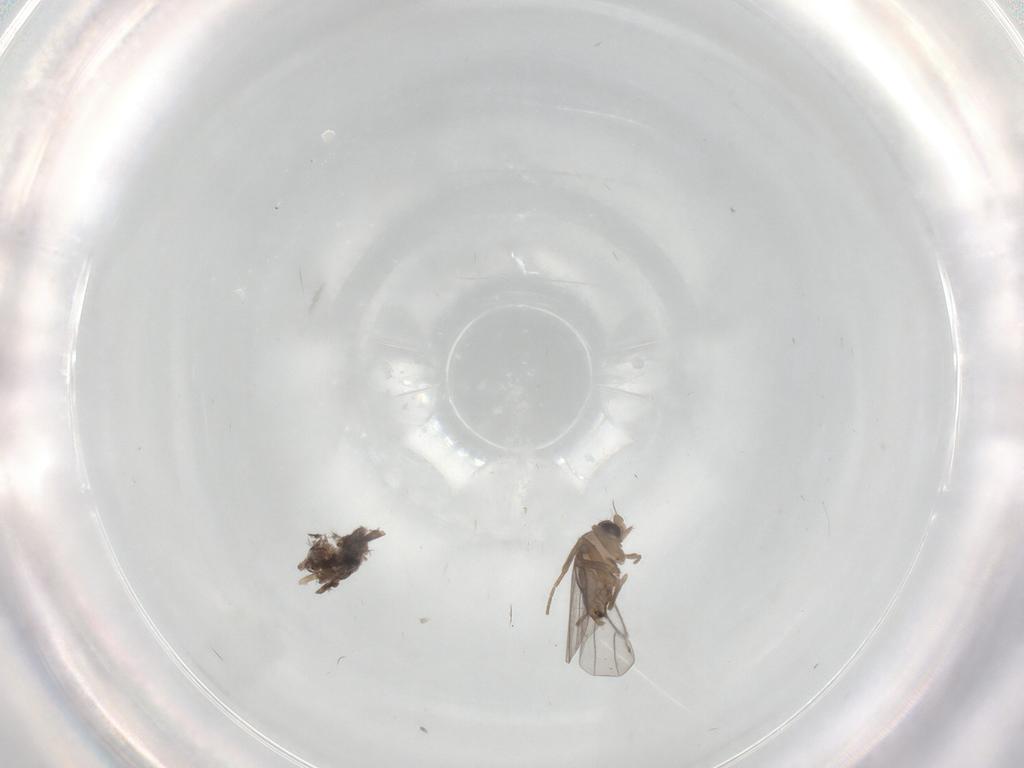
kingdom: Animalia
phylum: Arthropoda
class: Insecta
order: Diptera
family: Cecidomyiidae
